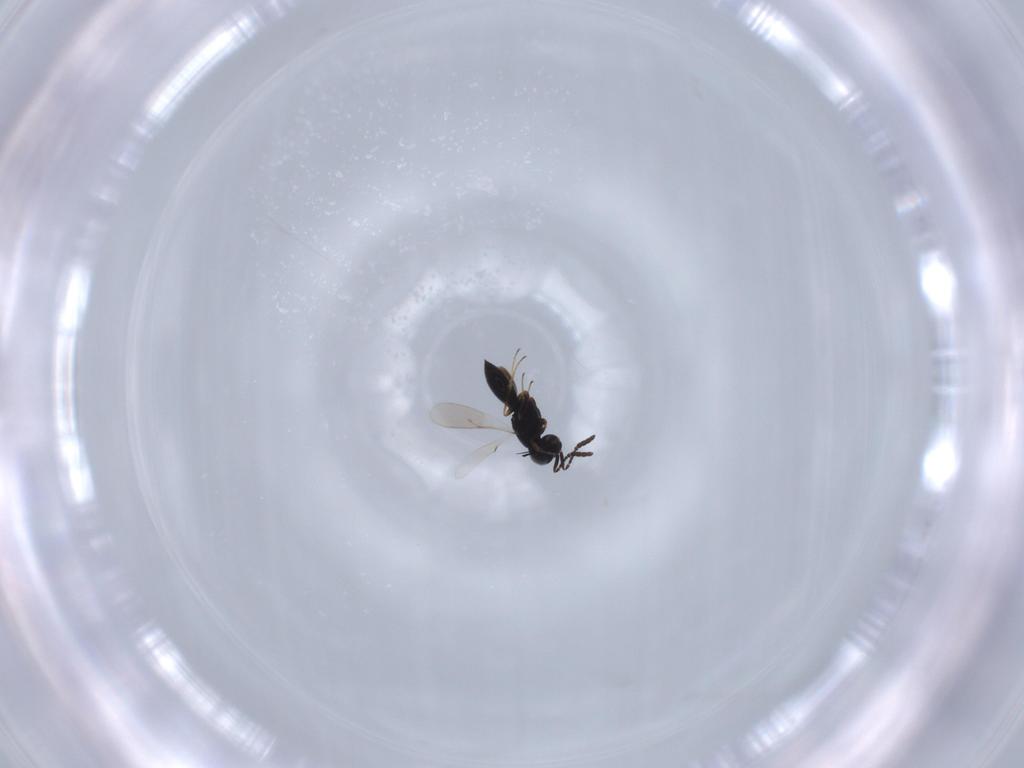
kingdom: Animalia
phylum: Arthropoda
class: Insecta
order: Hymenoptera
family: Scelionidae
